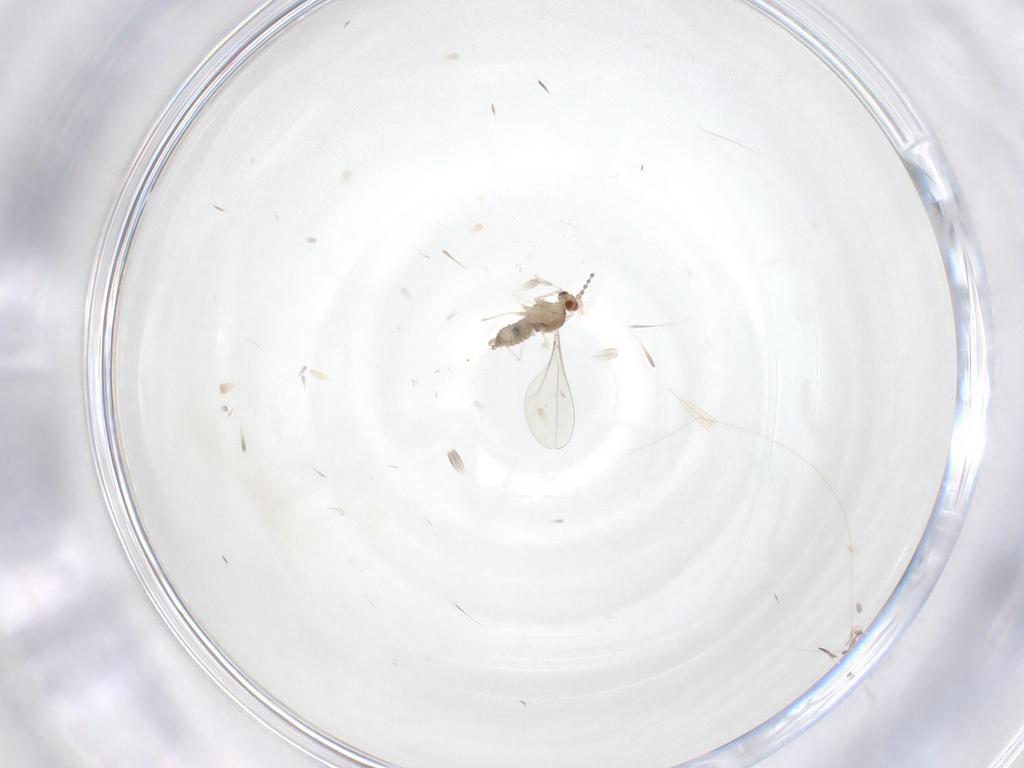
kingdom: Animalia
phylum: Arthropoda
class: Insecta
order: Diptera
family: Cecidomyiidae
